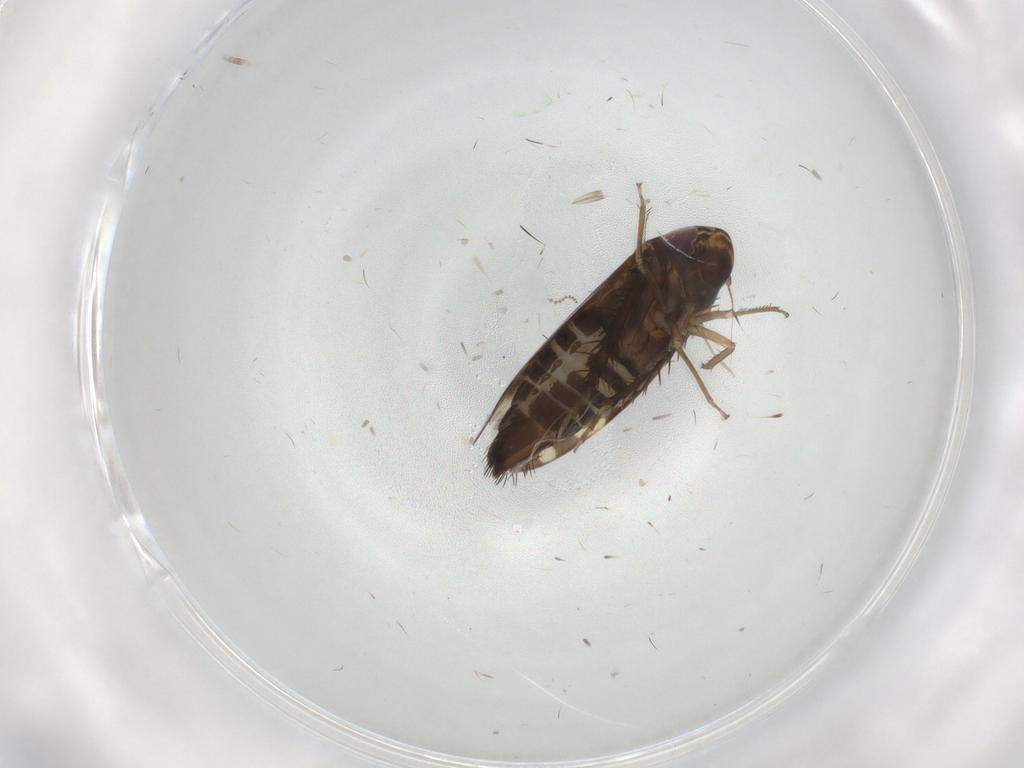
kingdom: Animalia
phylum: Arthropoda
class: Insecta
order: Hemiptera
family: Cicadellidae
